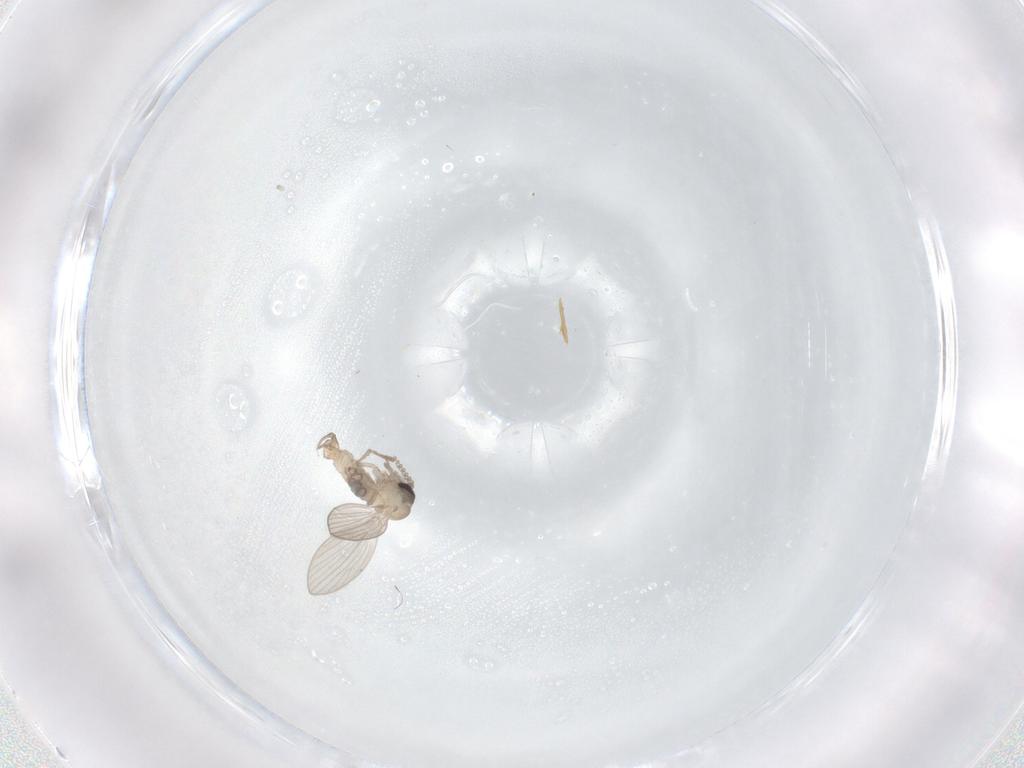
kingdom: Animalia
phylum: Arthropoda
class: Insecta
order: Diptera
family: Psychodidae
